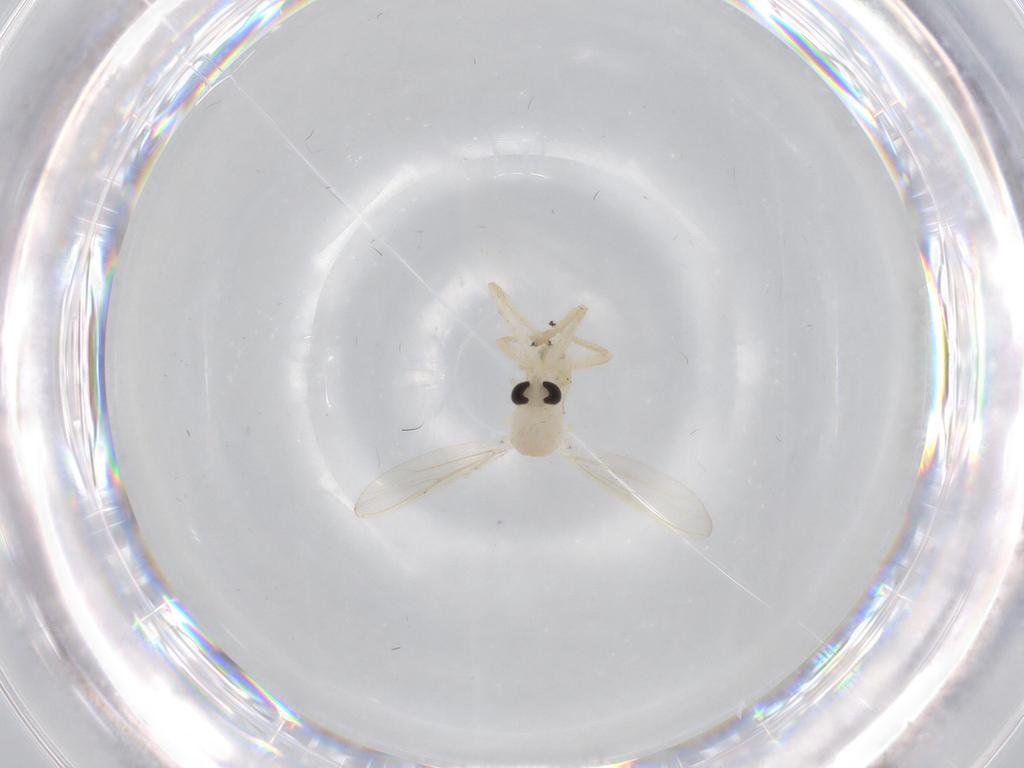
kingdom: Animalia
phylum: Arthropoda
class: Insecta
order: Diptera
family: Chironomidae
